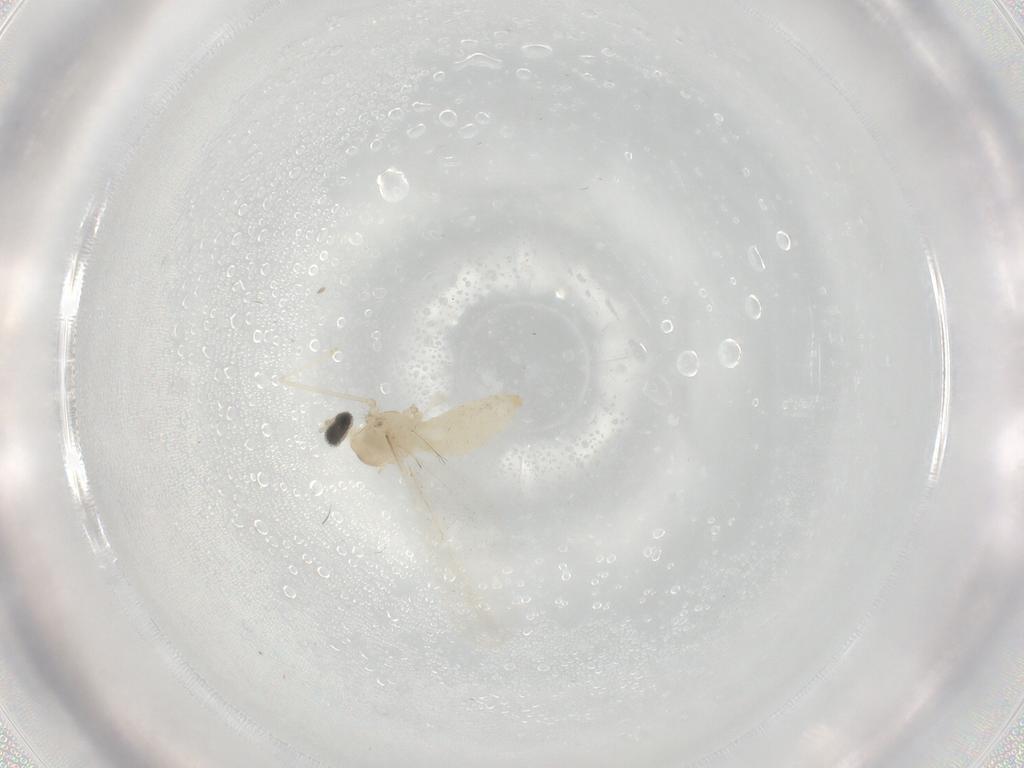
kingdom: Animalia
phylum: Arthropoda
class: Insecta
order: Diptera
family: Cecidomyiidae
